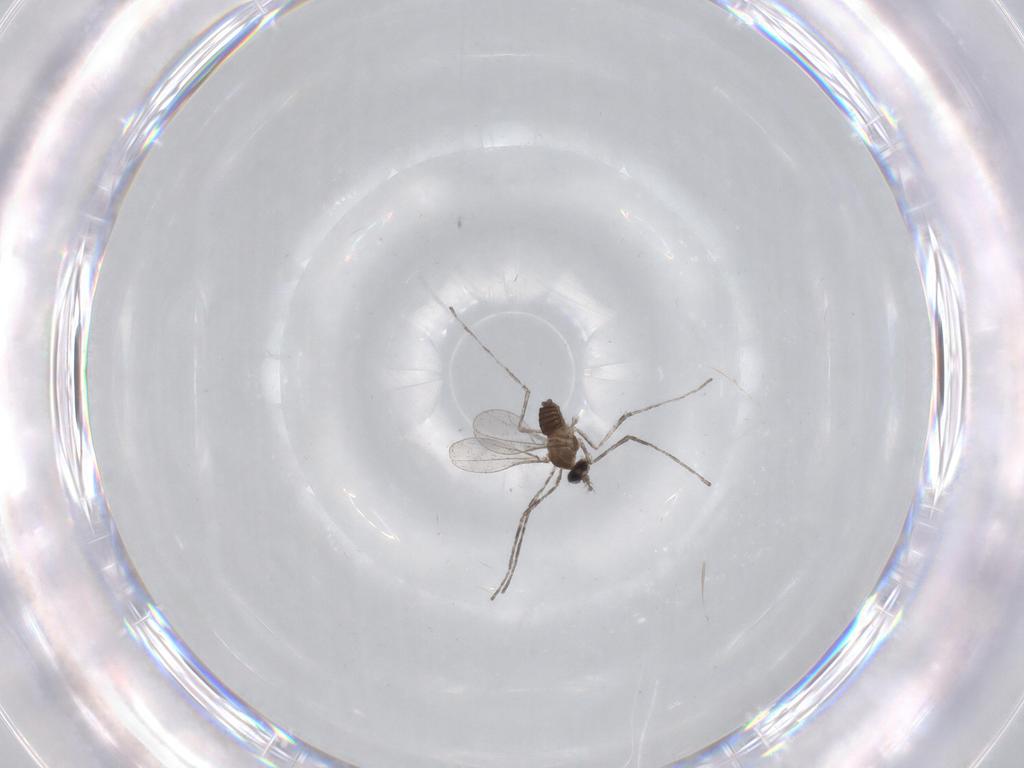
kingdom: Animalia
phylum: Arthropoda
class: Insecta
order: Diptera
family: Cecidomyiidae
